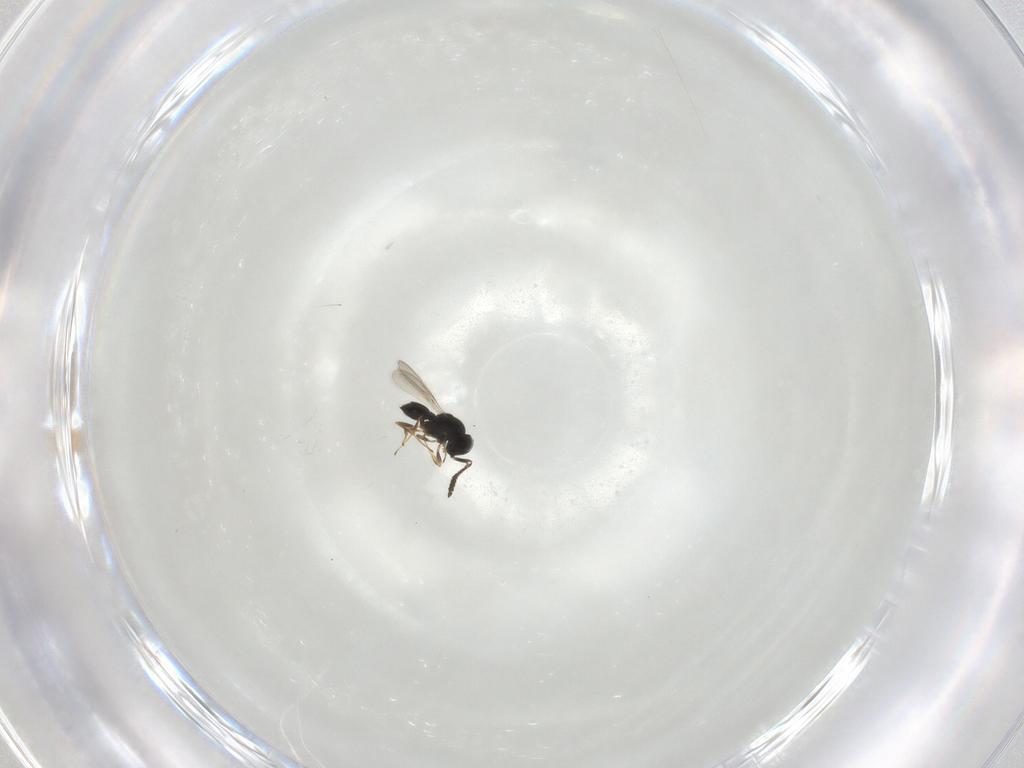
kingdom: Animalia
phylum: Arthropoda
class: Insecta
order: Hymenoptera
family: Scelionidae
